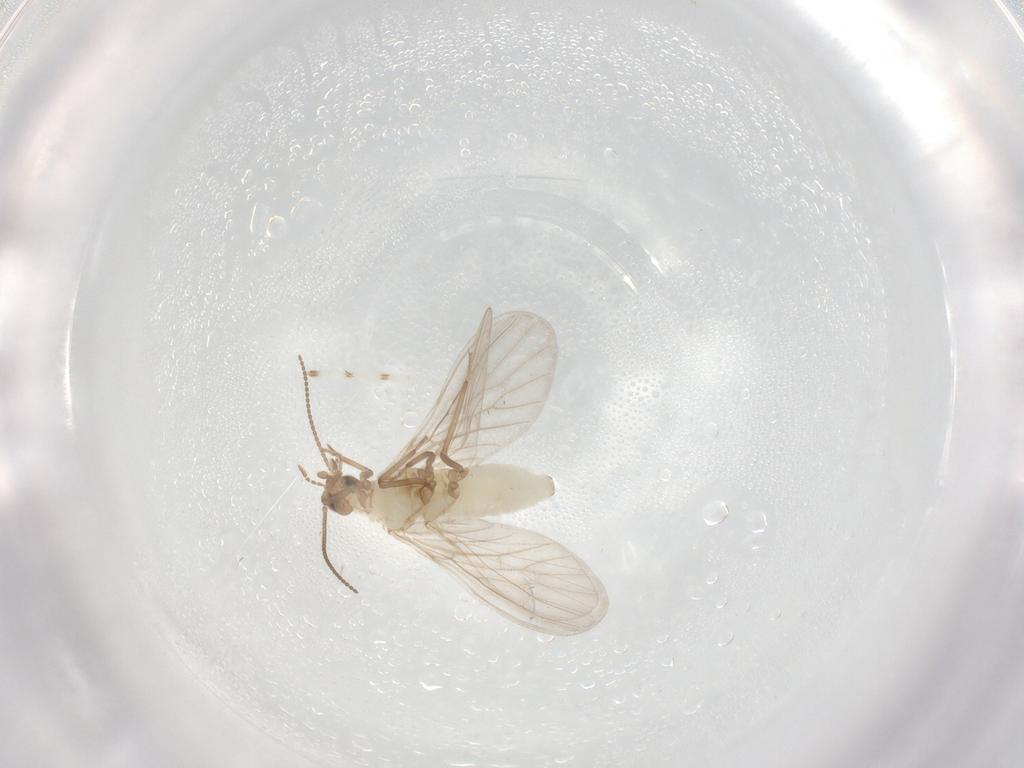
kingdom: Animalia
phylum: Arthropoda
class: Insecta
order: Neuroptera
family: Coniopterygidae
